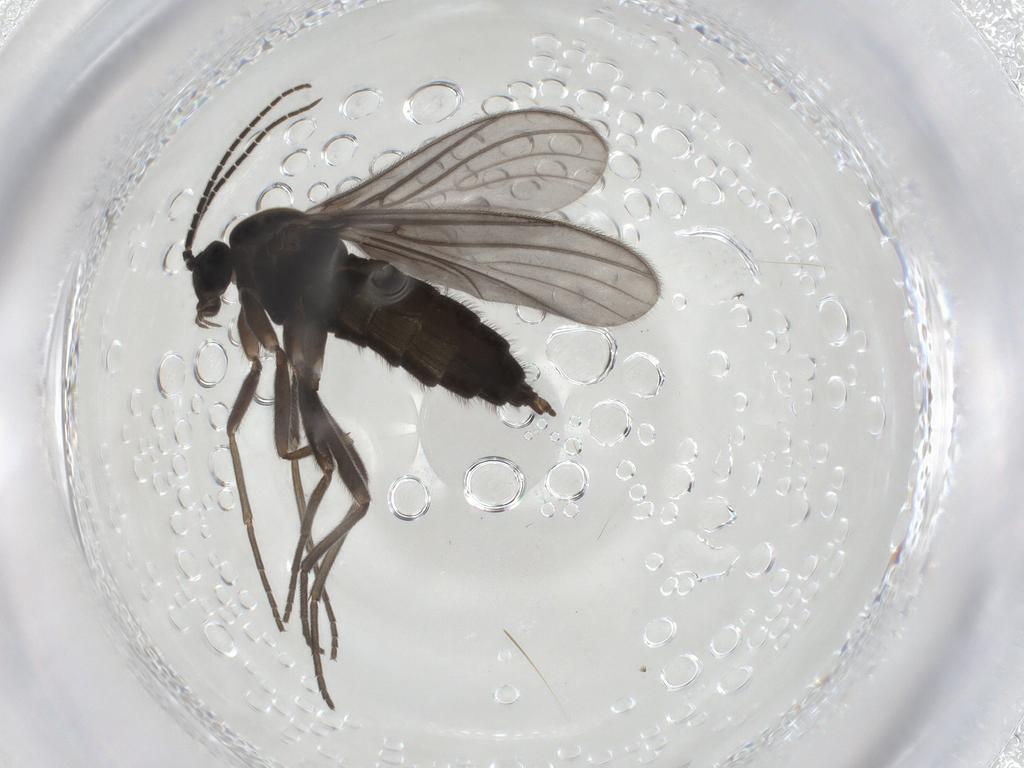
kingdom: Animalia
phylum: Arthropoda
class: Insecta
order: Diptera
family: Sciaridae
